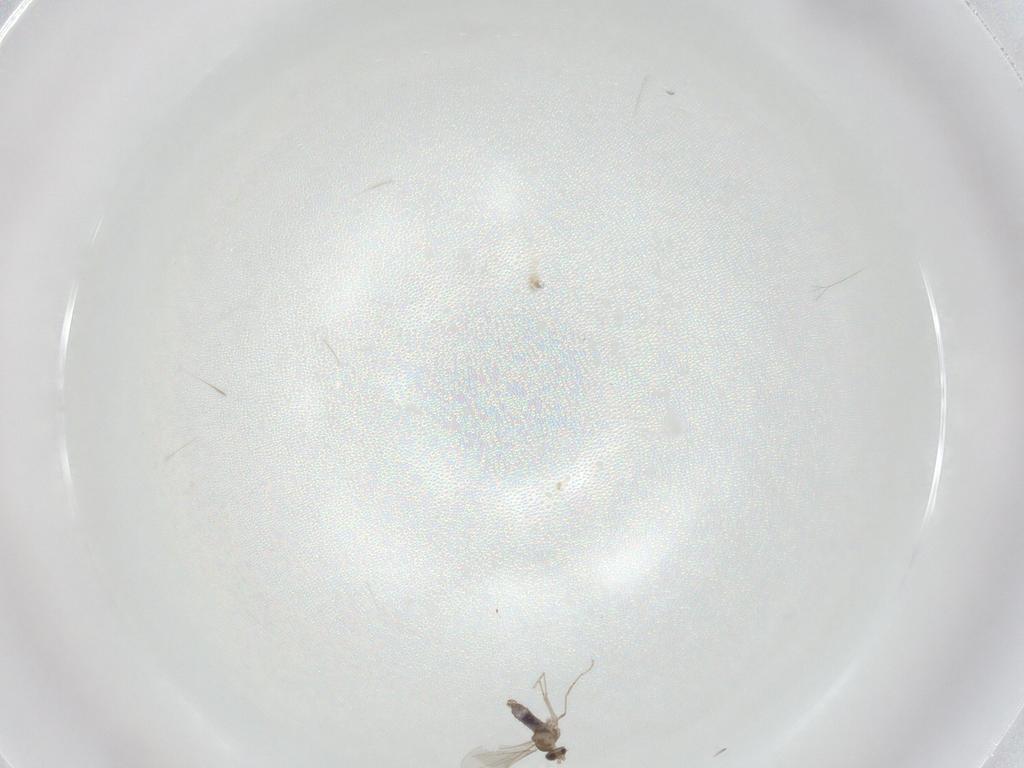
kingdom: Animalia
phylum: Arthropoda
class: Insecta
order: Diptera
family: Cecidomyiidae
